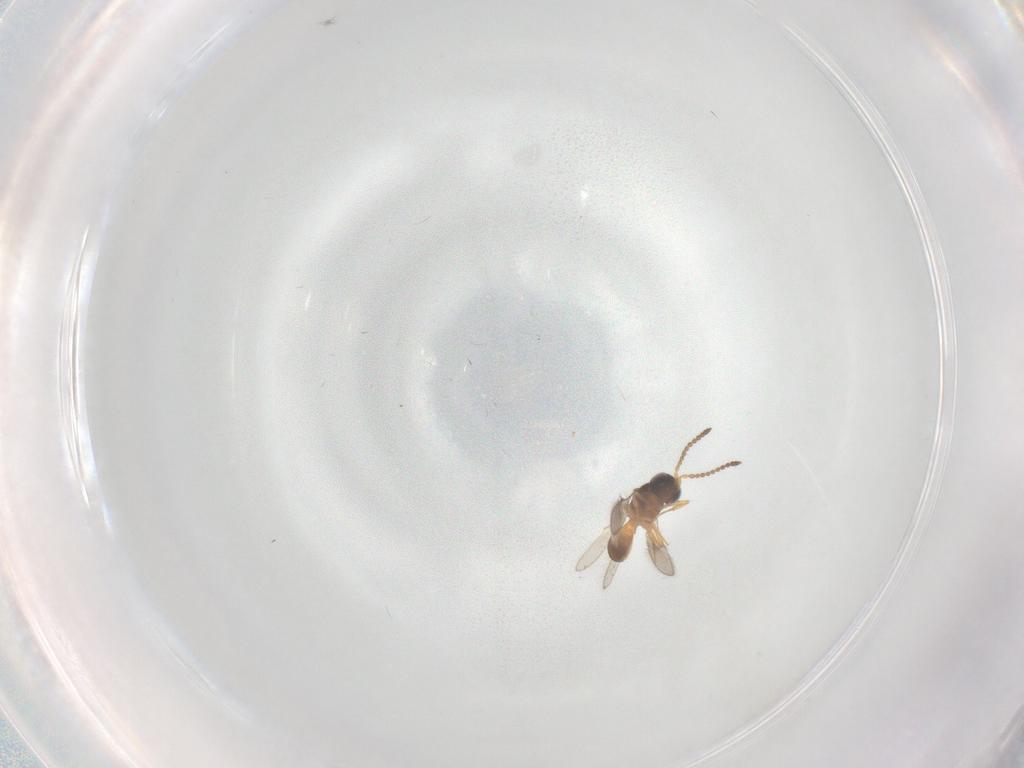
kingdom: Animalia
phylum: Arthropoda
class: Insecta
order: Hymenoptera
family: Scelionidae
